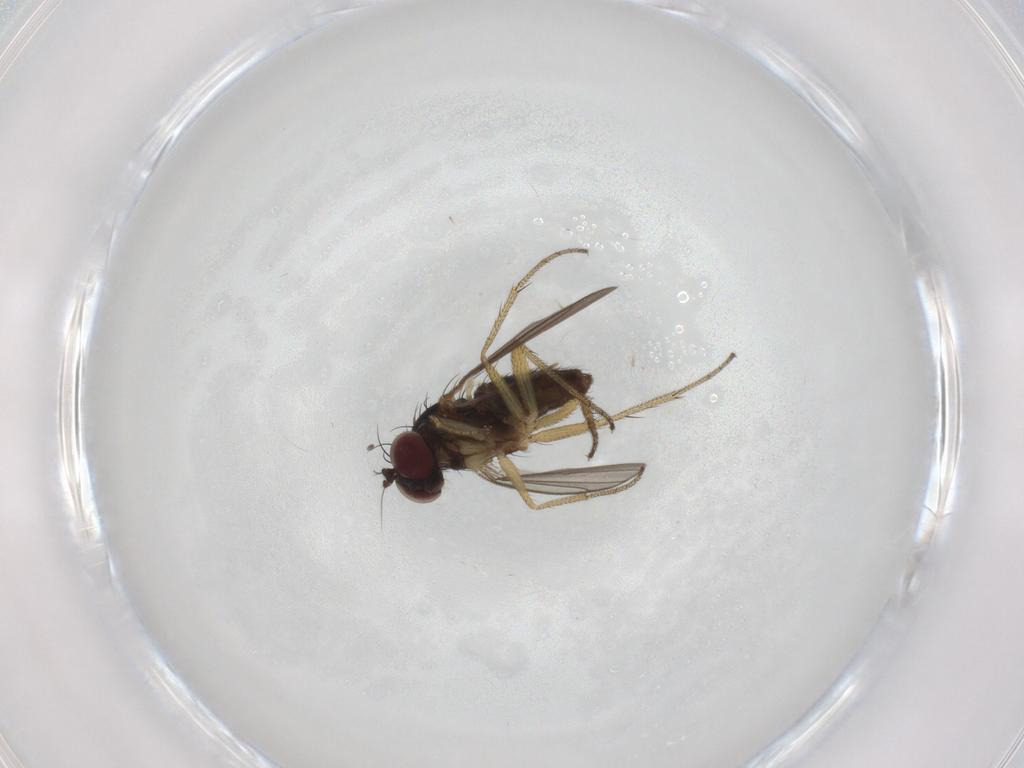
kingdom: Animalia
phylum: Arthropoda
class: Insecta
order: Diptera
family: Dolichopodidae
